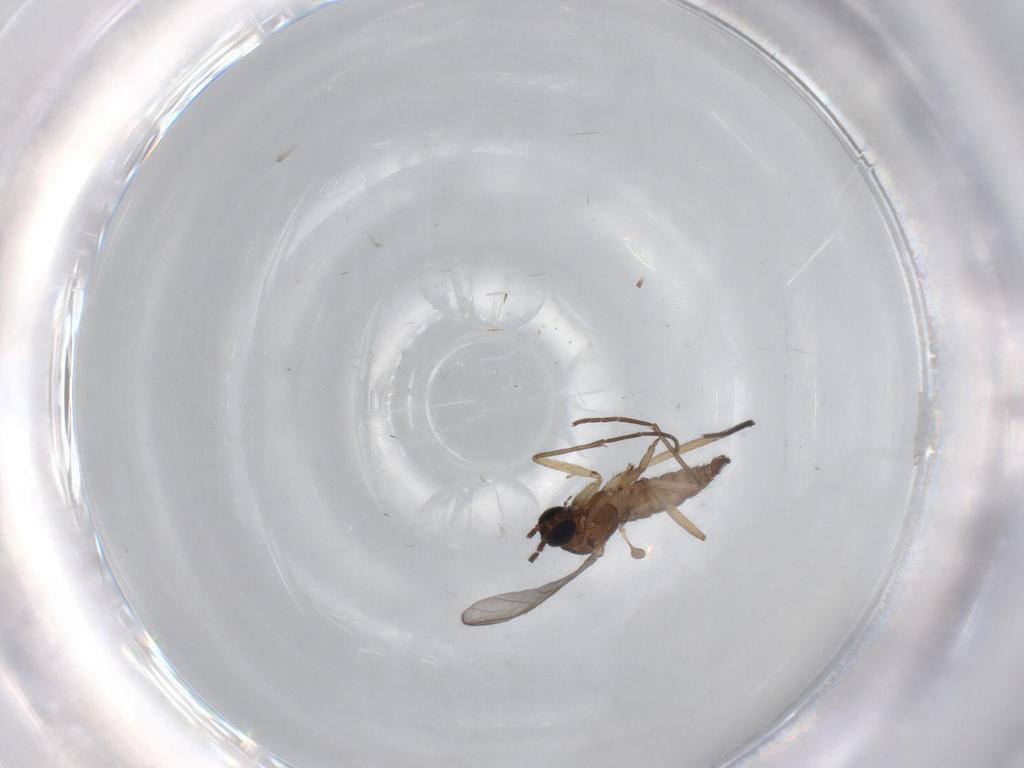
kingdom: Animalia
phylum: Arthropoda
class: Insecta
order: Diptera
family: Sciaridae
